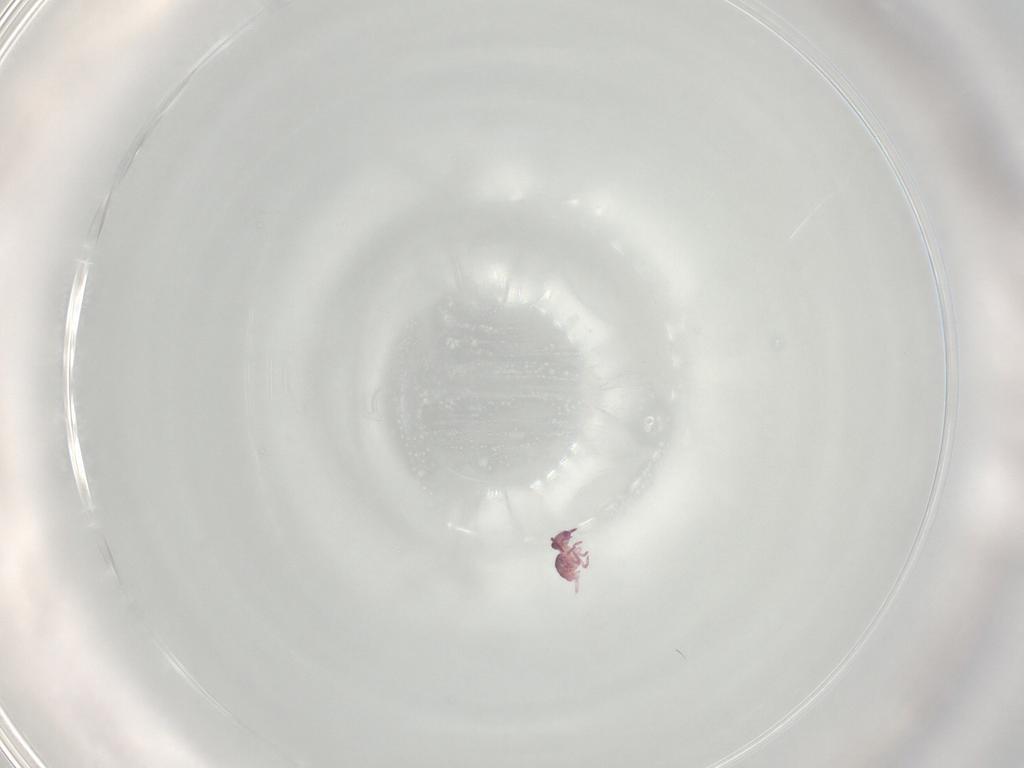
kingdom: Animalia
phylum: Arthropoda
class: Collembola
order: Symphypleona
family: Sminthurididae
